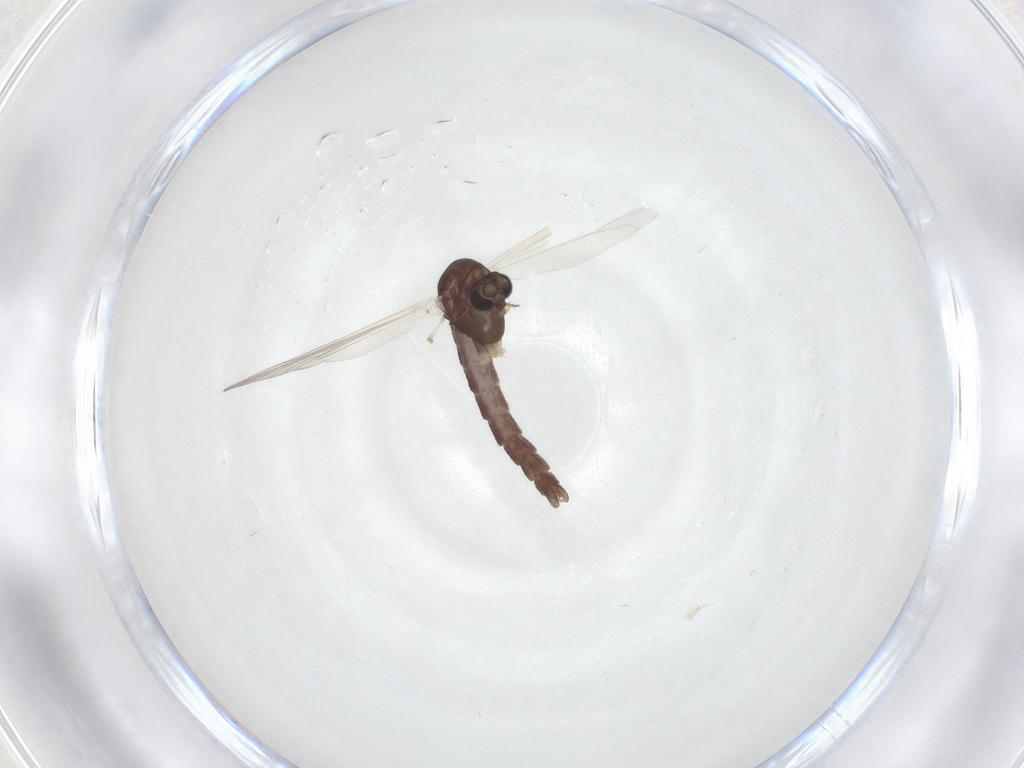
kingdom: Animalia
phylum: Arthropoda
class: Insecta
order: Diptera
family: Chironomidae
